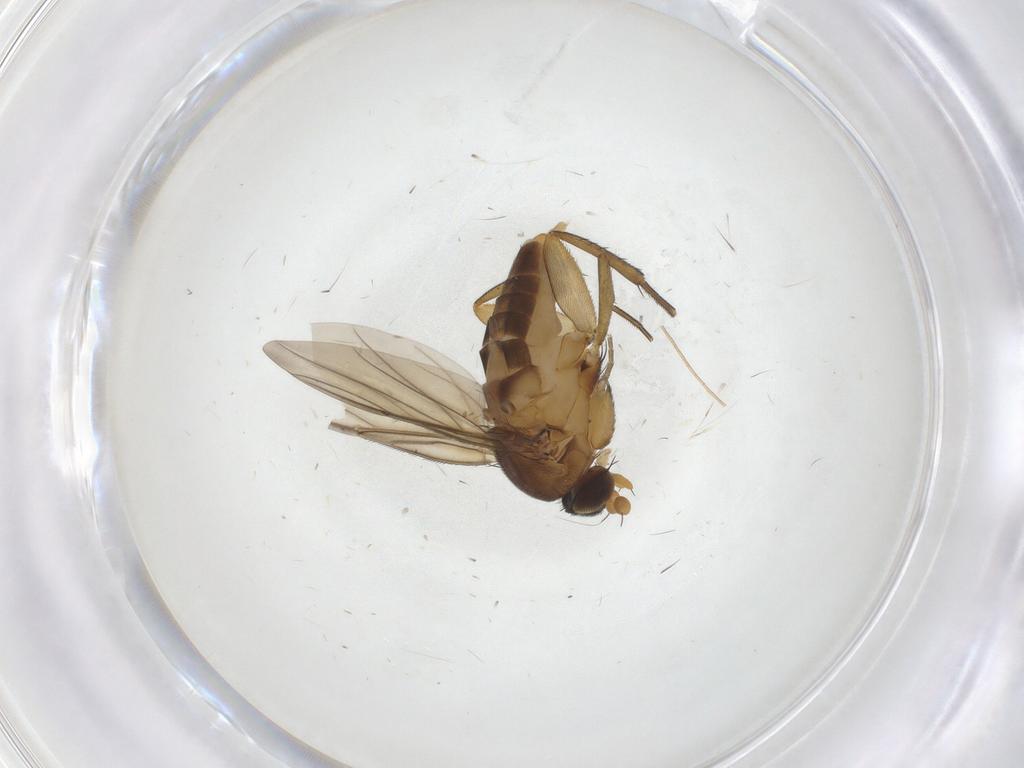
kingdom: Animalia
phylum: Arthropoda
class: Insecta
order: Diptera
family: Phoridae
